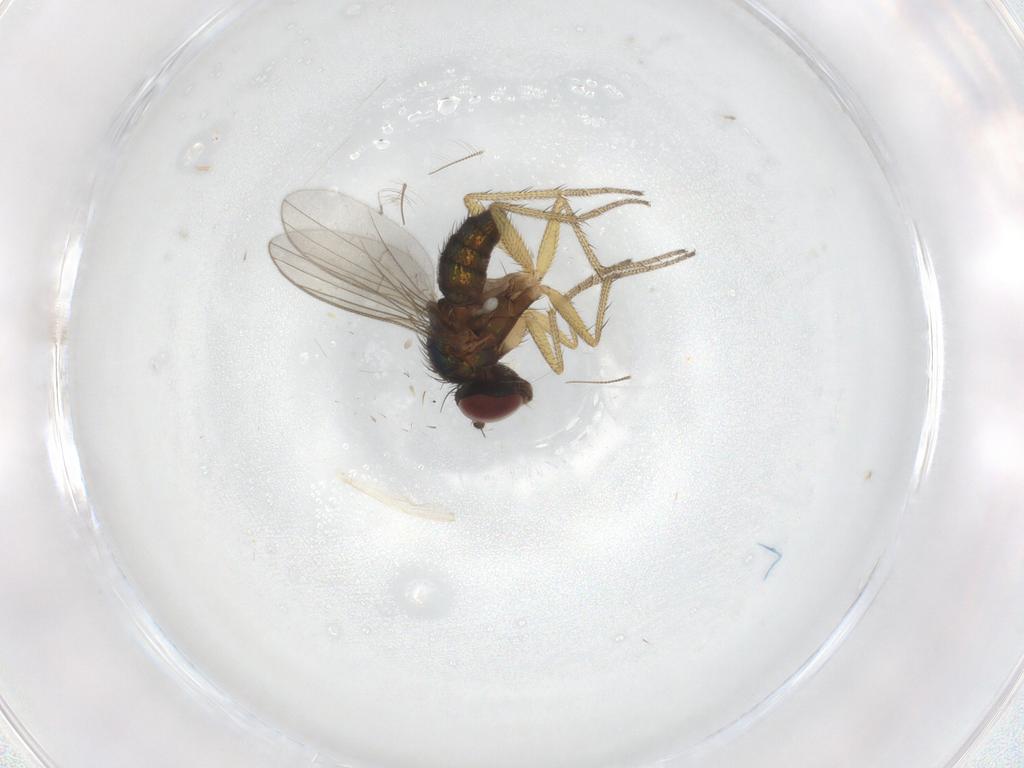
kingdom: Animalia
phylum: Arthropoda
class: Insecta
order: Diptera
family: Chironomidae
